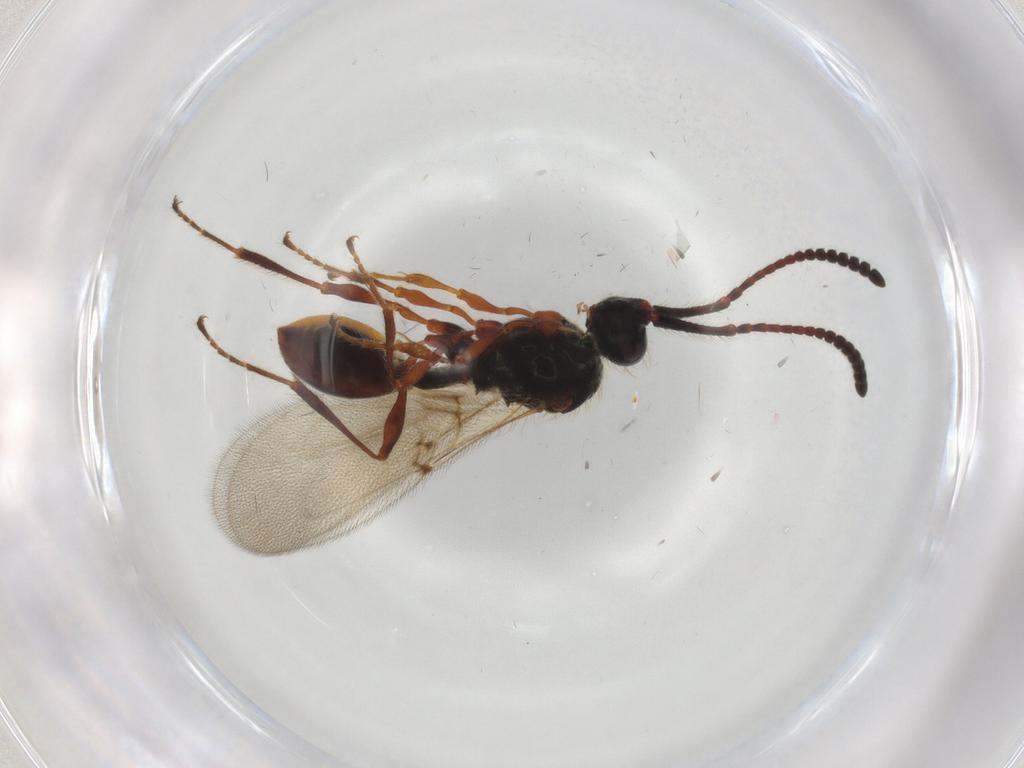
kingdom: Animalia
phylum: Arthropoda
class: Insecta
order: Hymenoptera
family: Diapriidae
